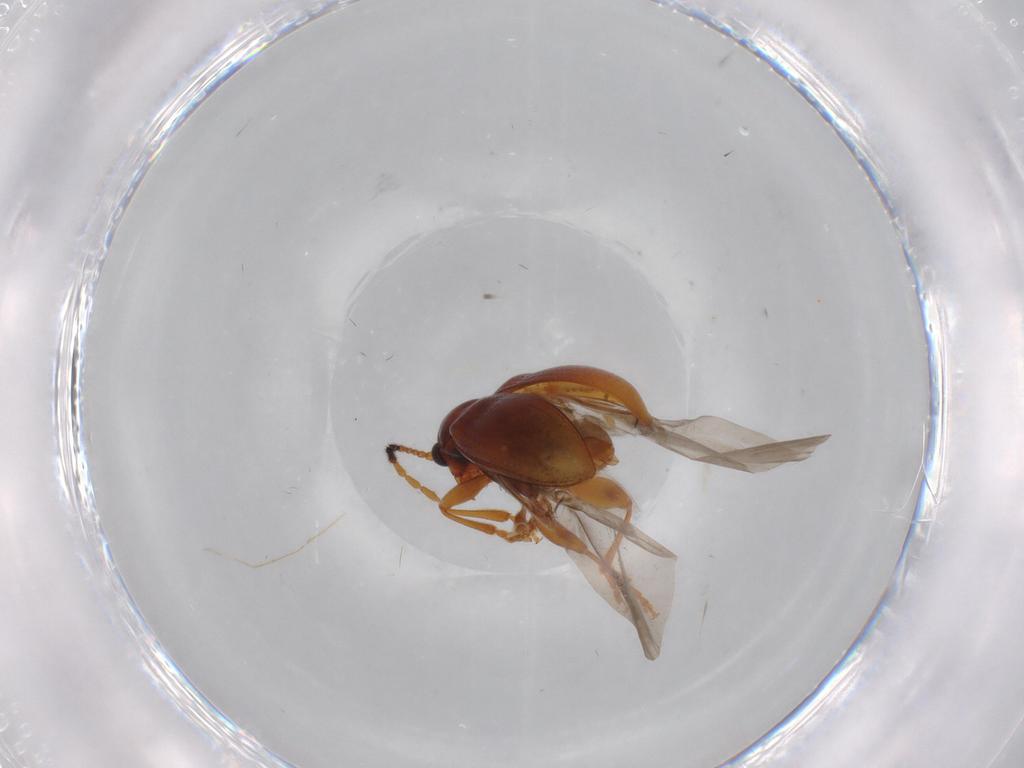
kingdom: Animalia
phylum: Arthropoda
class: Insecta
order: Coleoptera
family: Chrysomelidae
